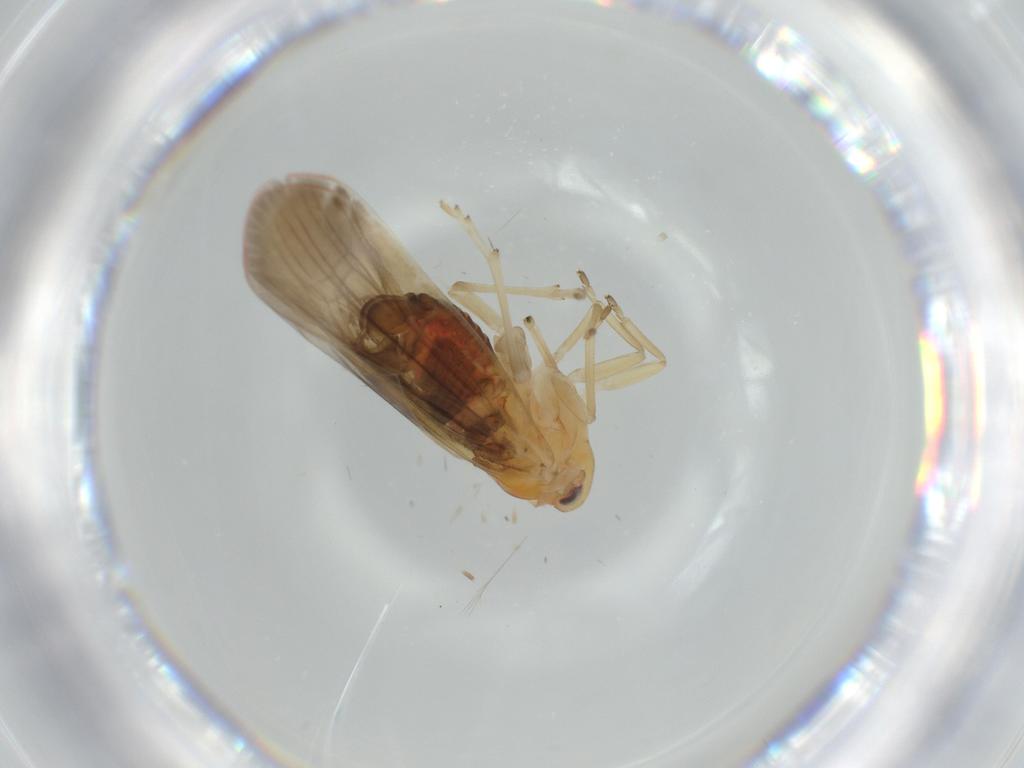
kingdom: Animalia
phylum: Arthropoda
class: Insecta
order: Hemiptera
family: Derbidae
